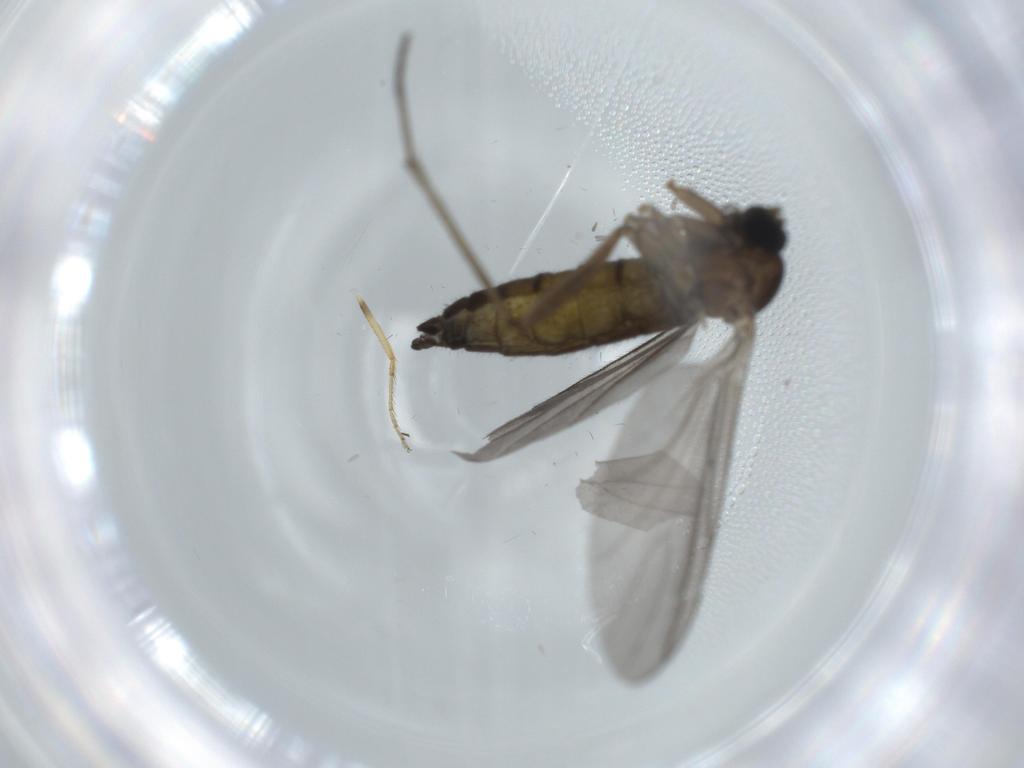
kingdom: Animalia
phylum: Arthropoda
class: Insecta
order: Diptera
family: Sciaridae
